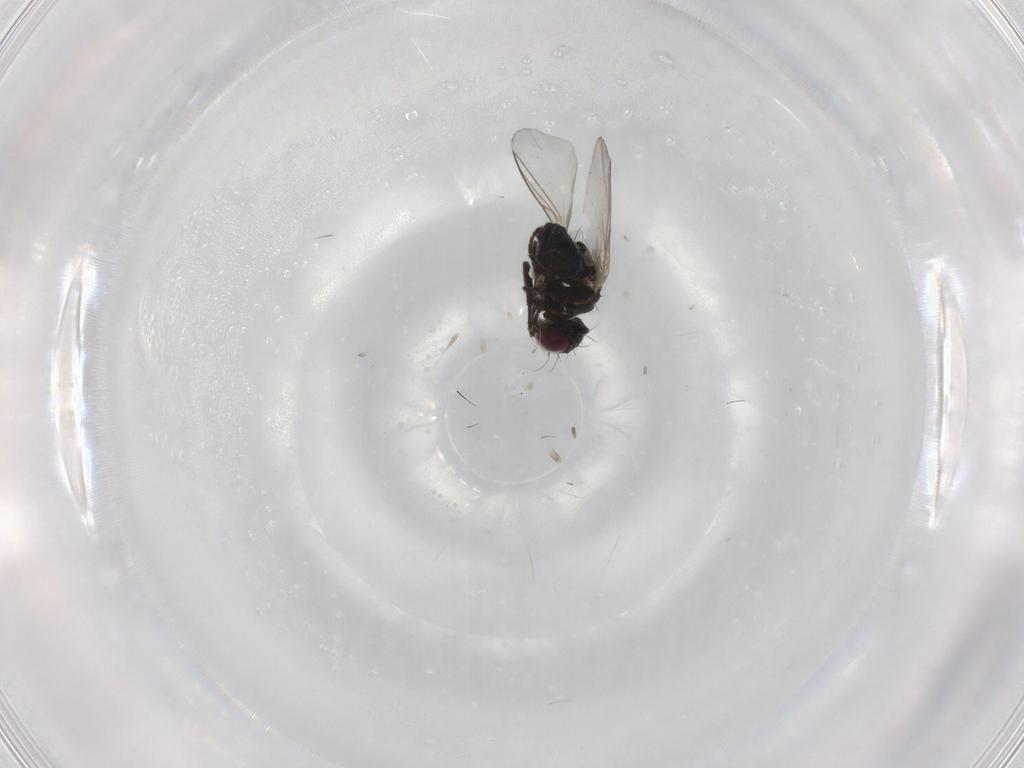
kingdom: Animalia
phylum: Arthropoda
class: Insecta
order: Diptera
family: Agromyzidae
